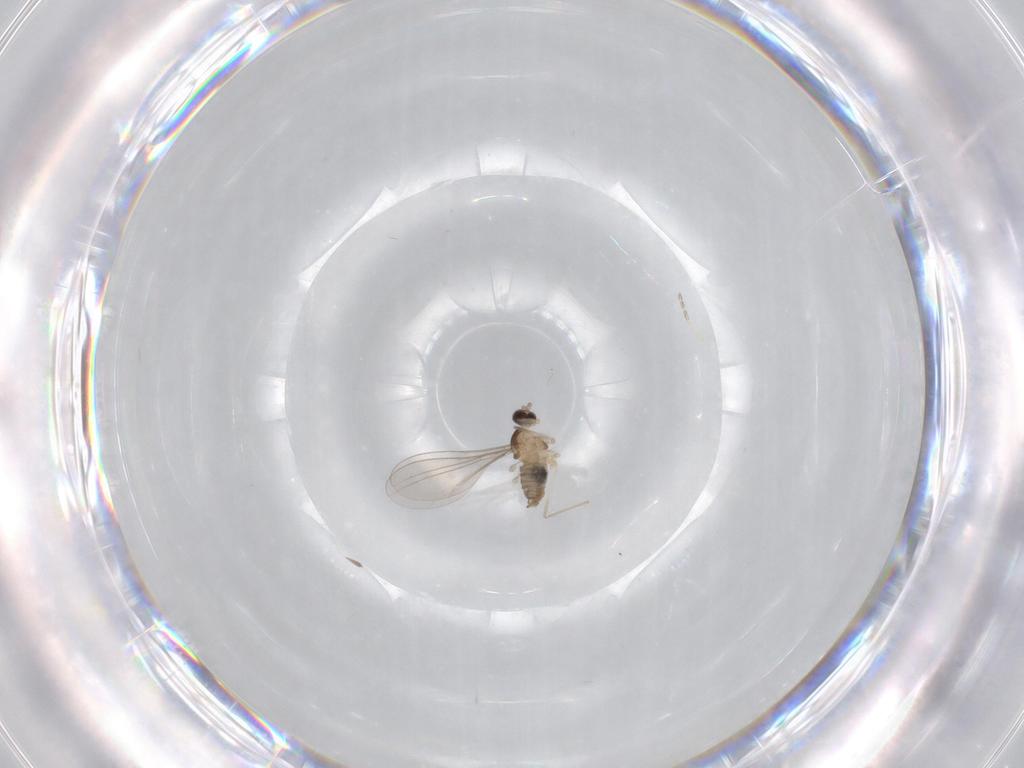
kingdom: Animalia
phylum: Arthropoda
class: Insecta
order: Diptera
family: Cecidomyiidae
